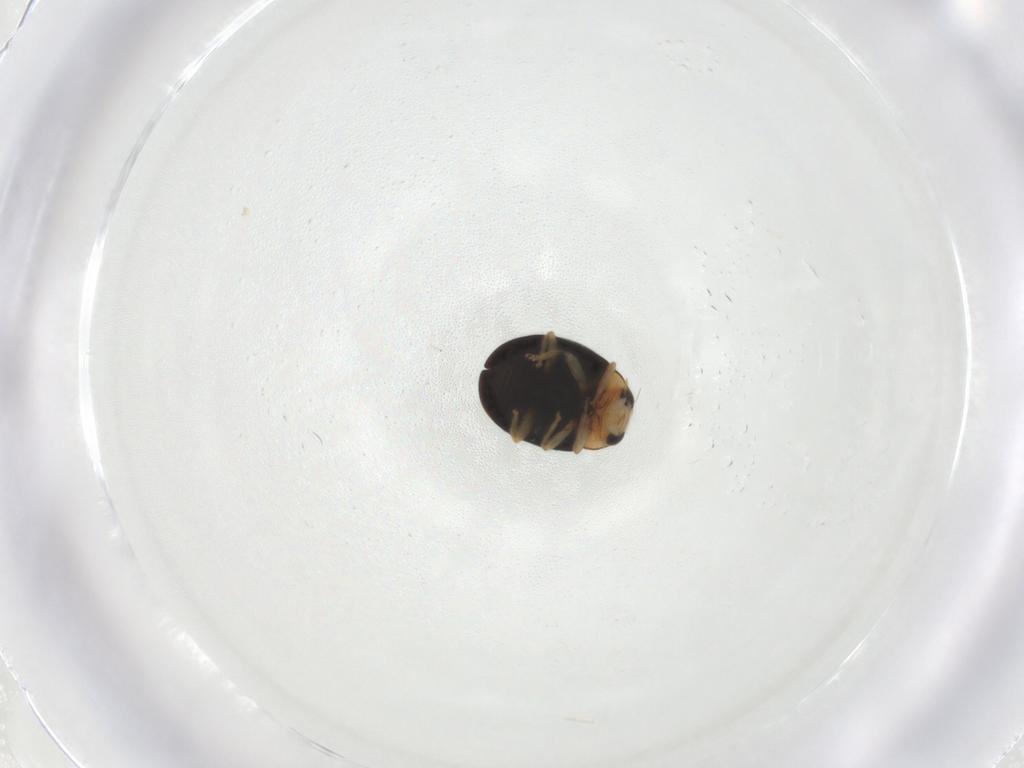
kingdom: Animalia
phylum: Arthropoda
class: Insecta
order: Coleoptera
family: Coccinellidae
